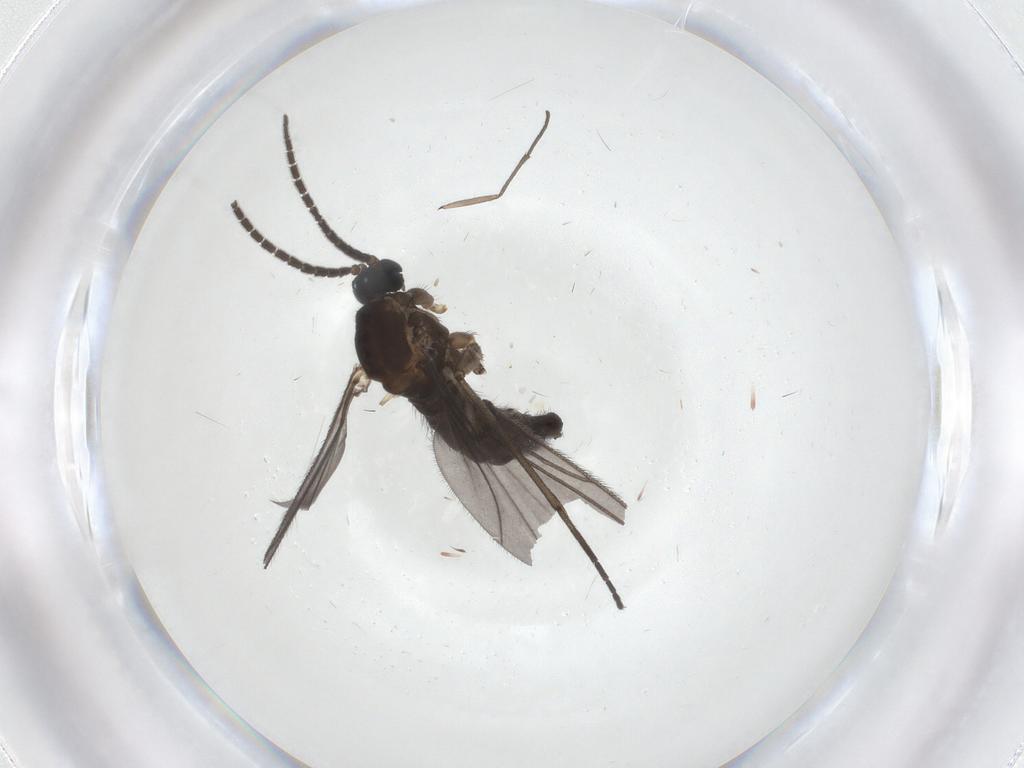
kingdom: Animalia
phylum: Arthropoda
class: Insecta
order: Diptera
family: Sciaridae
